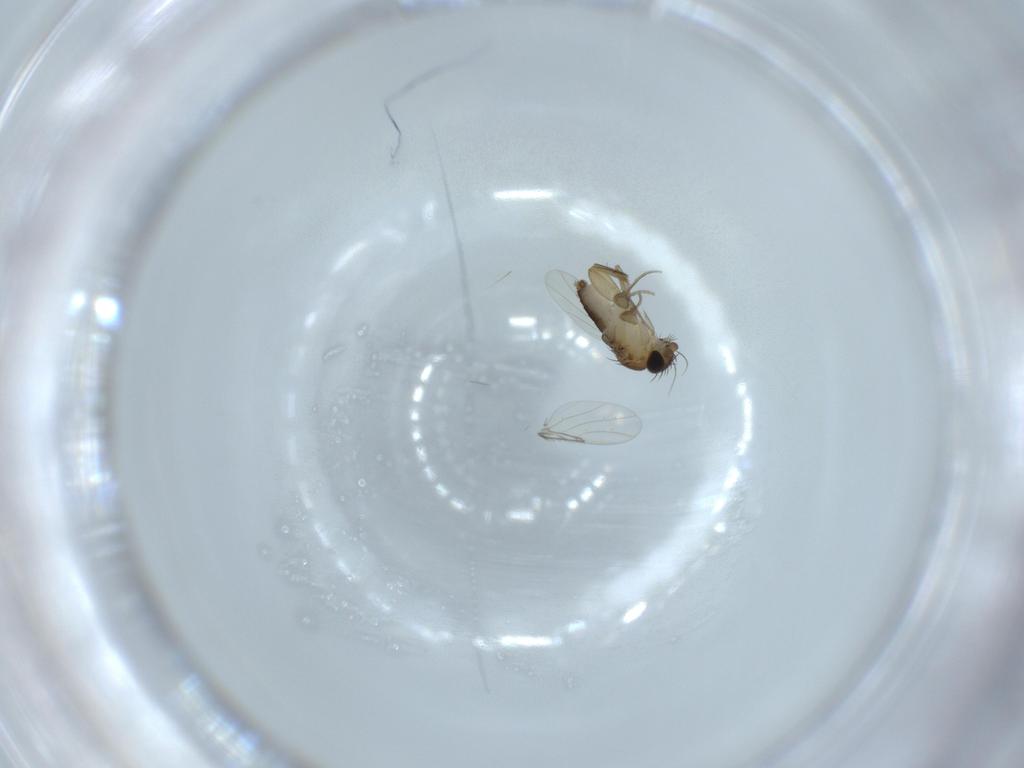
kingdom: Animalia
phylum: Arthropoda
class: Insecta
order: Diptera
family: Phoridae
